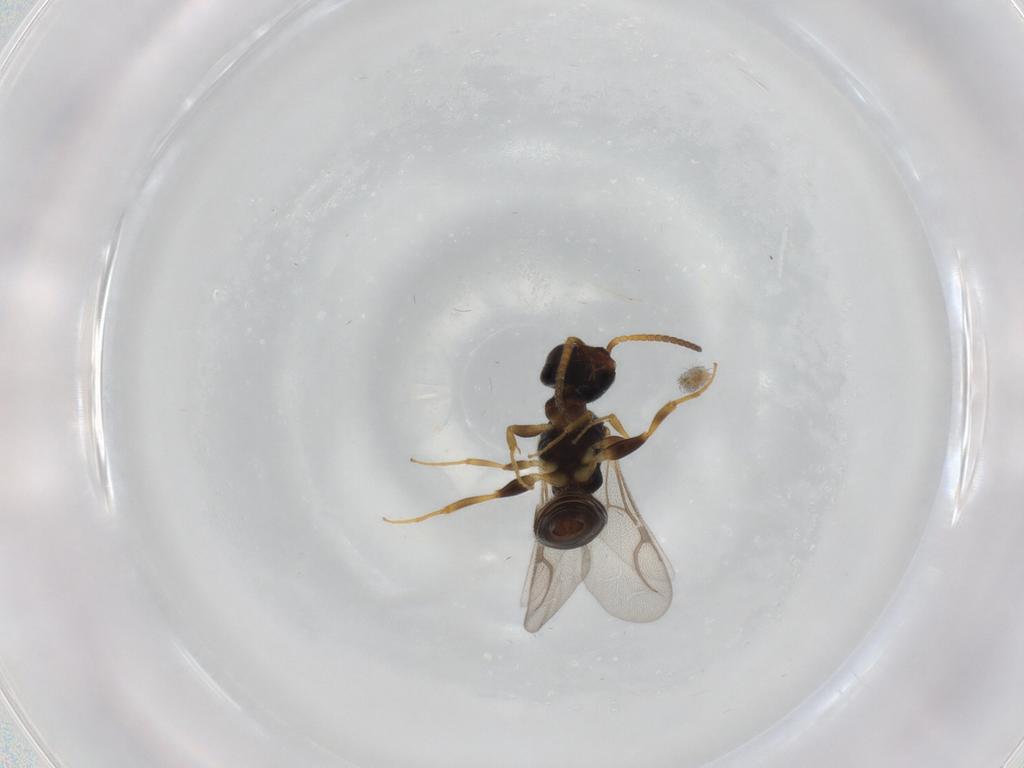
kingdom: Animalia
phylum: Arthropoda
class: Insecta
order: Hymenoptera
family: Bethylidae
